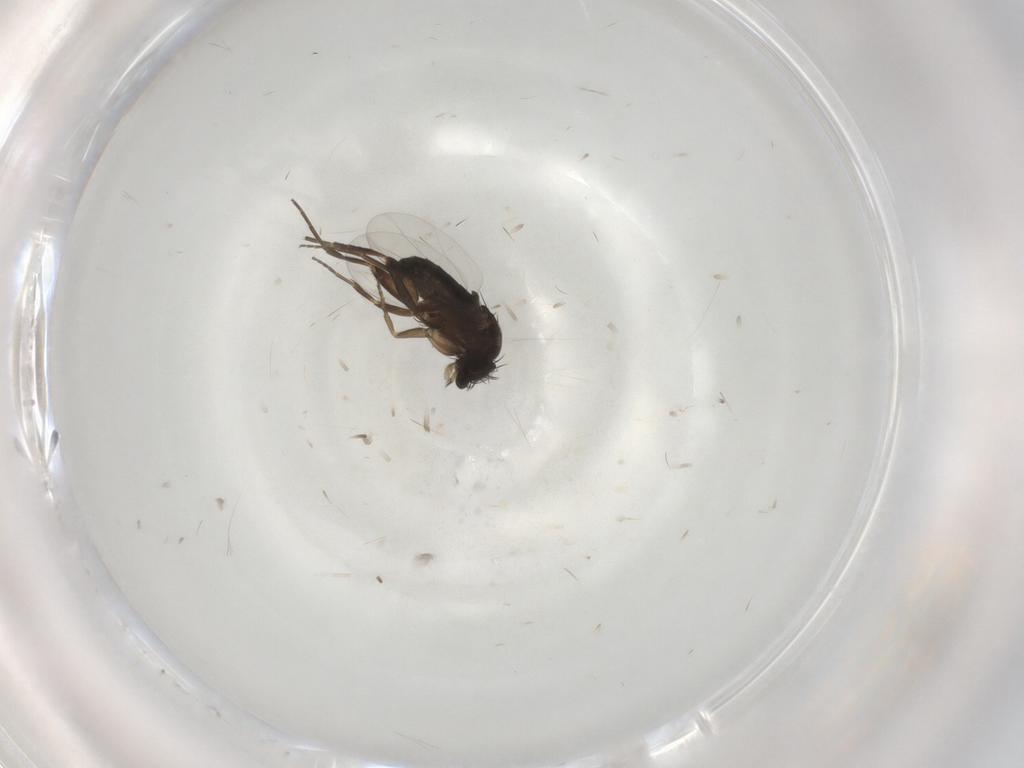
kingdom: Animalia
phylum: Arthropoda
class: Insecta
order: Diptera
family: Phoridae
